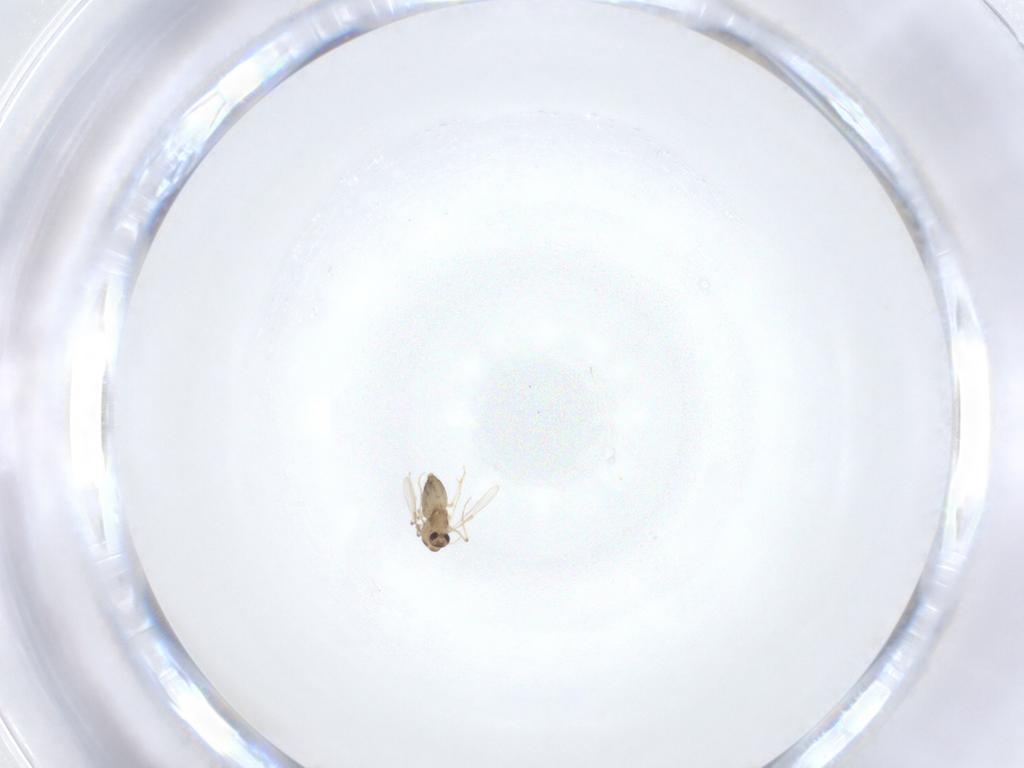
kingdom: Animalia
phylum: Arthropoda
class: Insecta
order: Diptera
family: Chironomidae
